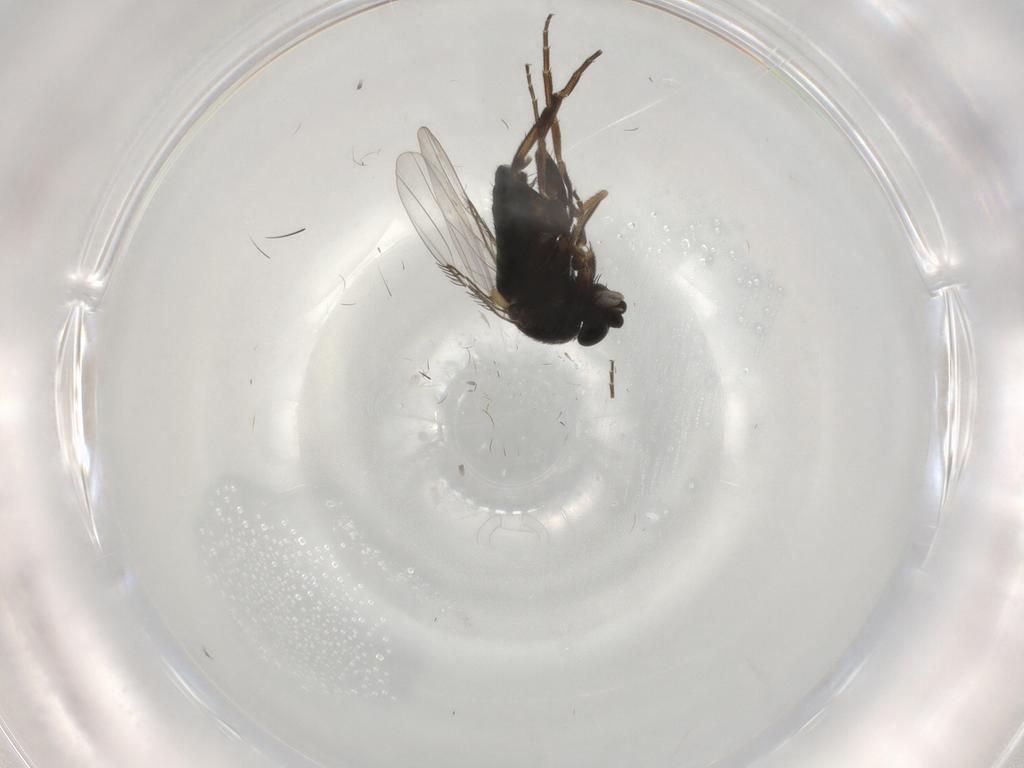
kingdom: Animalia
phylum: Arthropoda
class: Insecta
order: Diptera
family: Phoridae
